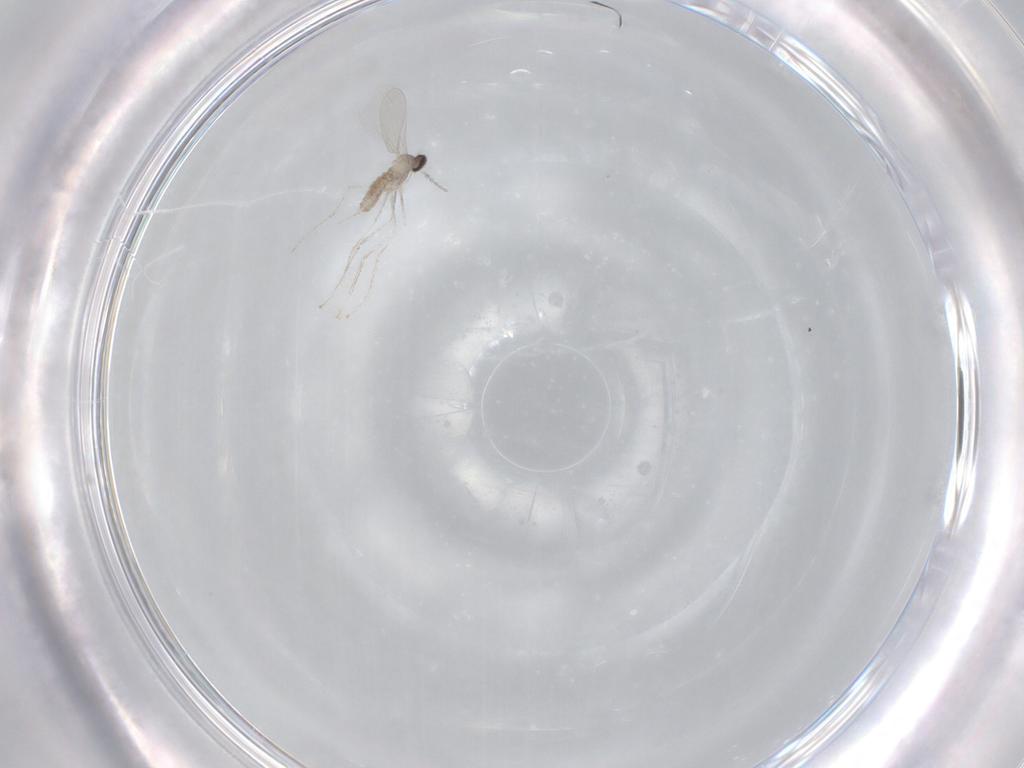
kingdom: Animalia
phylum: Arthropoda
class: Insecta
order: Diptera
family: Cecidomyiidae
